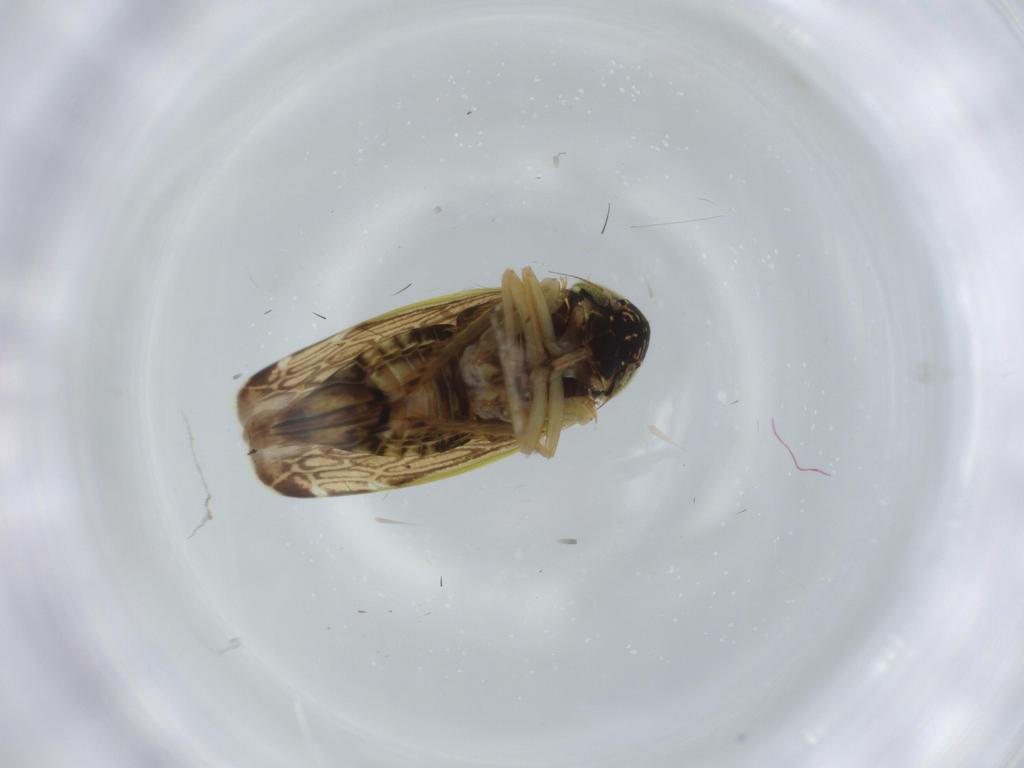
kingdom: Animalia
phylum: Arthropoda
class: Insecta
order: Hemiptera
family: Cicadellidae
